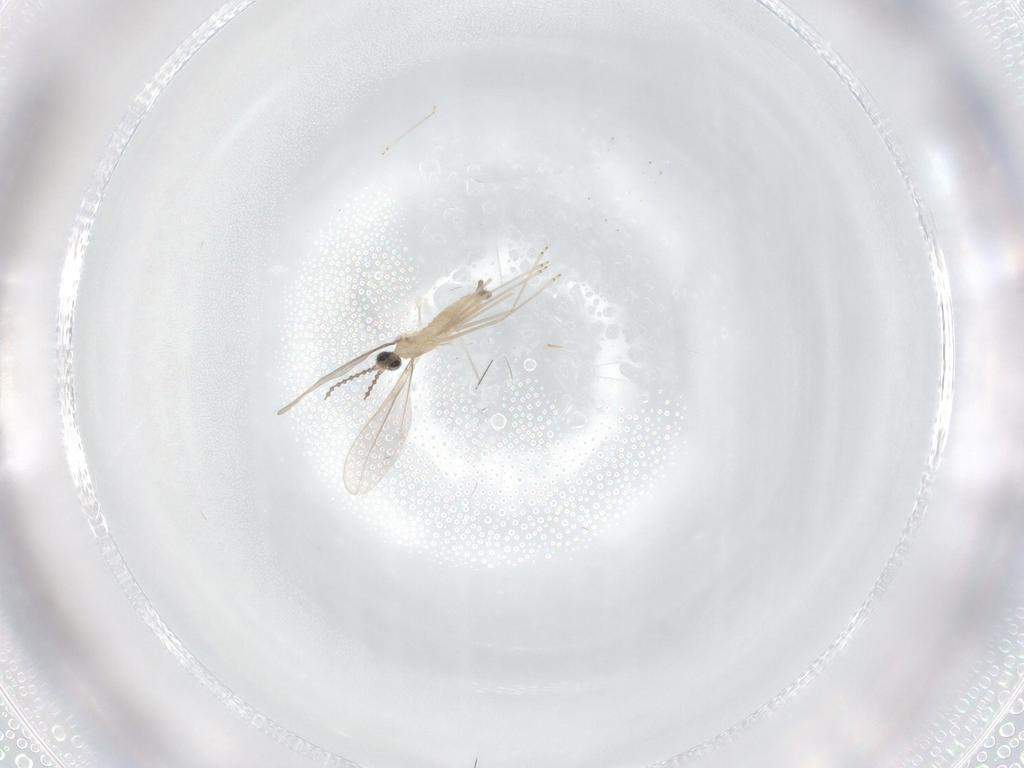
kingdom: Animalia
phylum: Arthropoda
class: Insecta
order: Diptera
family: Cecidomyiidae
